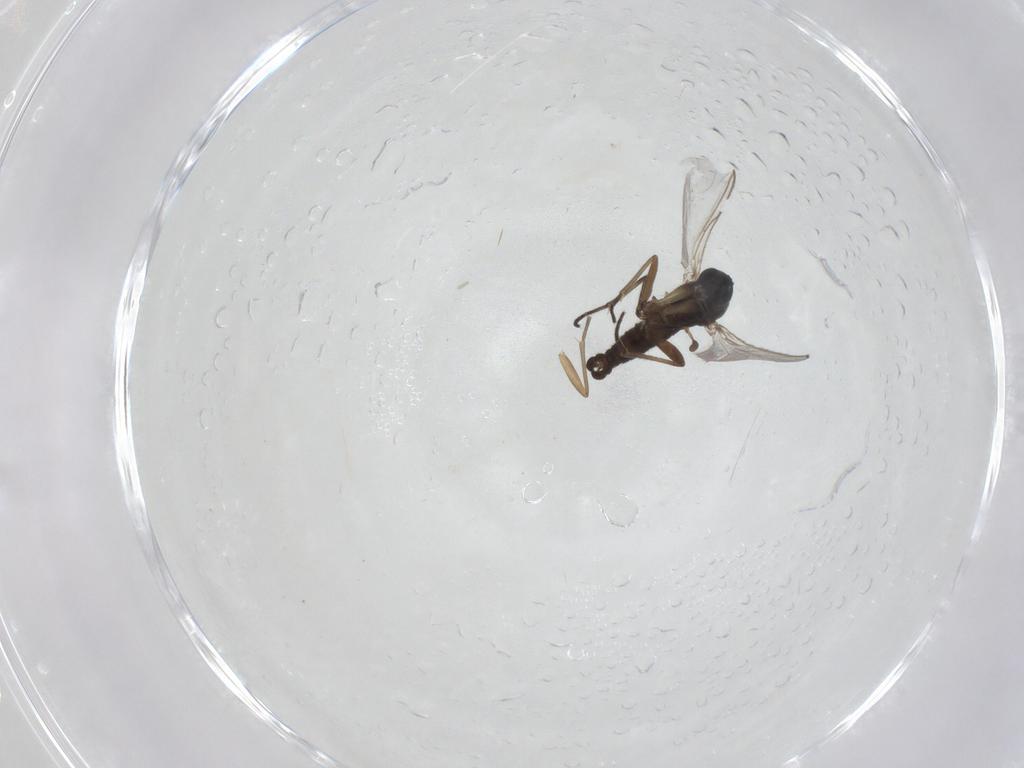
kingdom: Animalia
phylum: Arthropoda
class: Insecta
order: Diptera
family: Sciaridae
